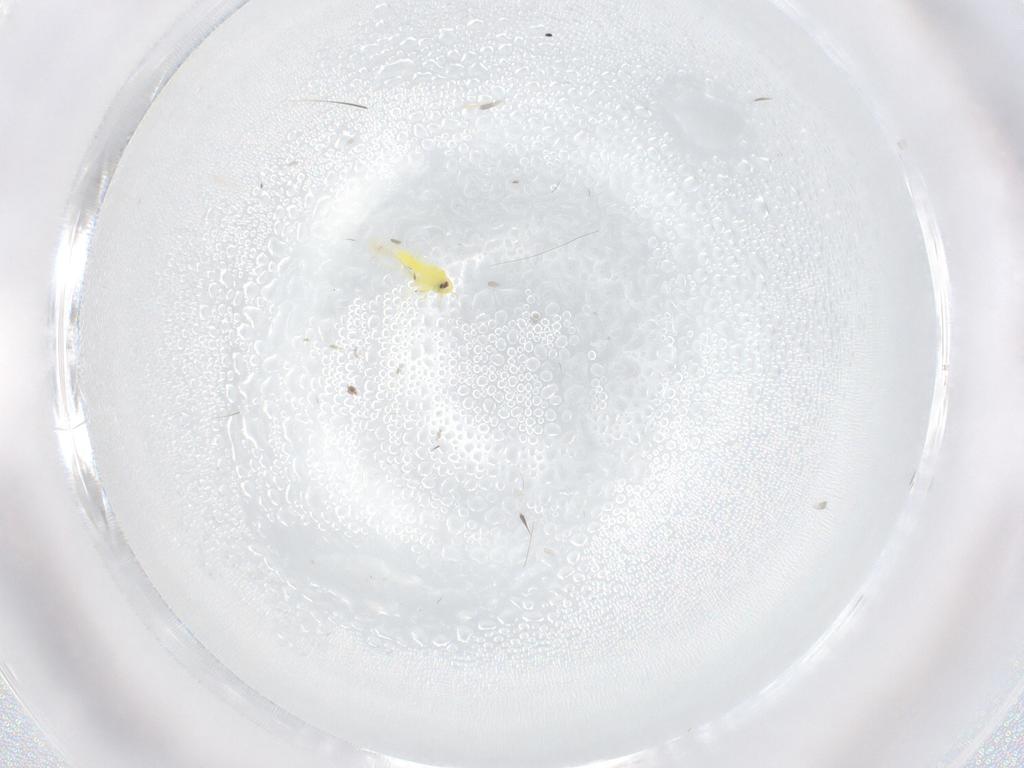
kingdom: Animalia
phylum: Arthropoda
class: Insecta
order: Hemiptera
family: Aleyrodidae
